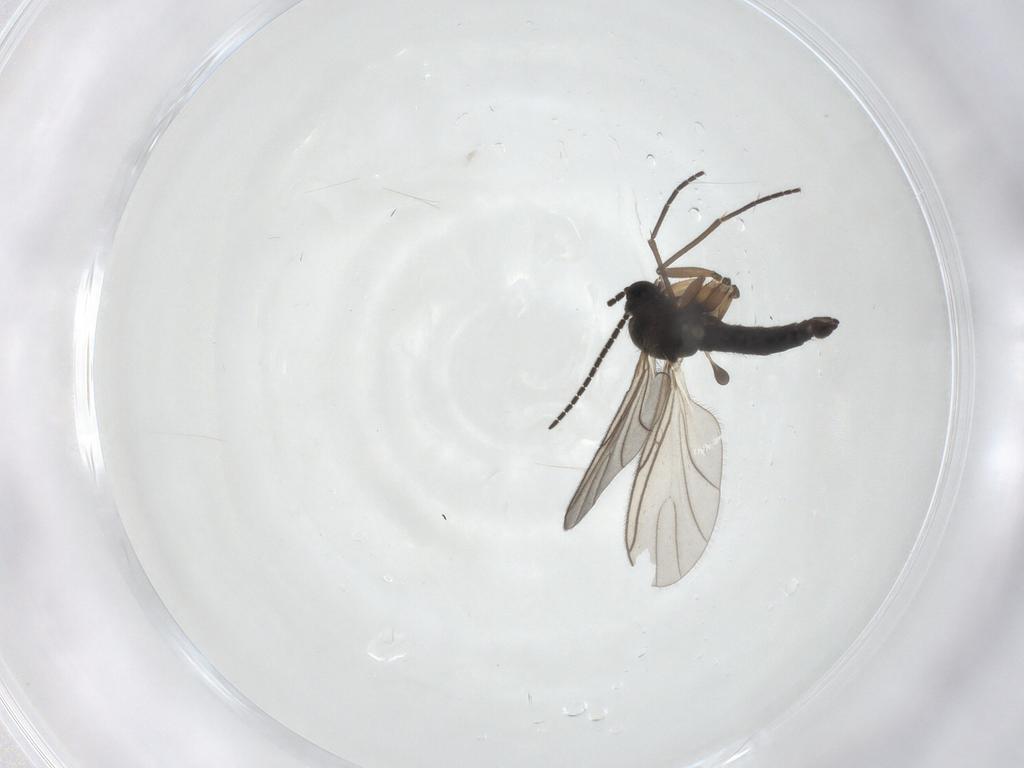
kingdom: Animalia
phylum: Arthropoda
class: Insecta
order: Diptera
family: Sciaridae
